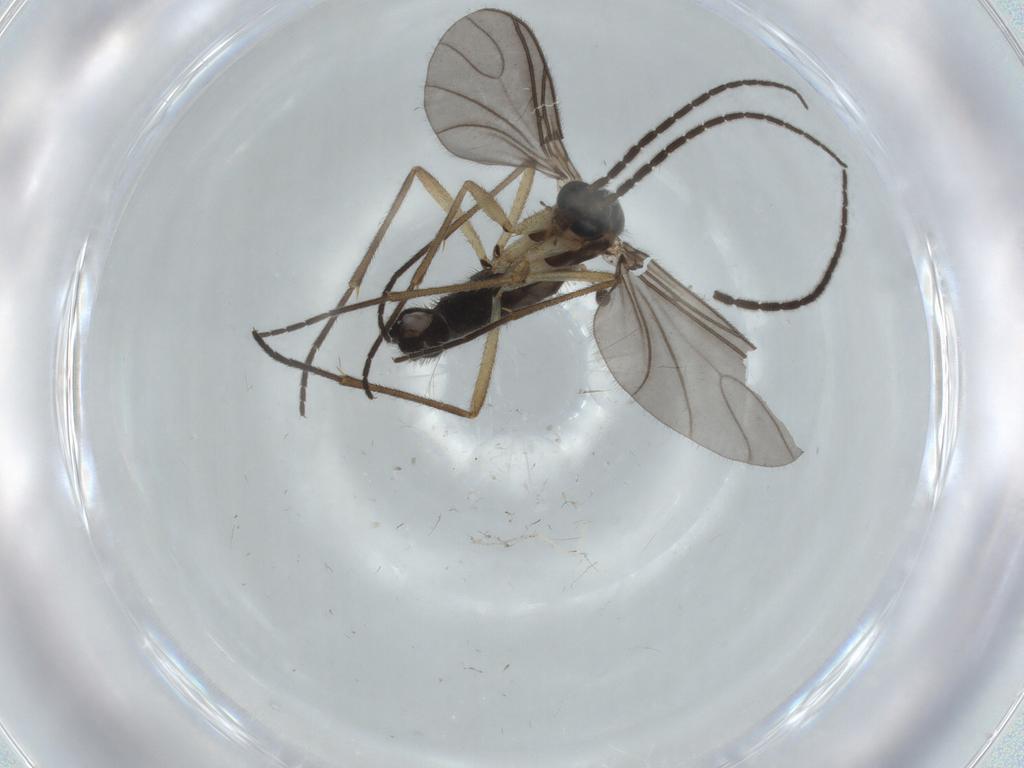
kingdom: Animalia
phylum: Arthropoda
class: Insecta
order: Diptera
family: Sciaridae
